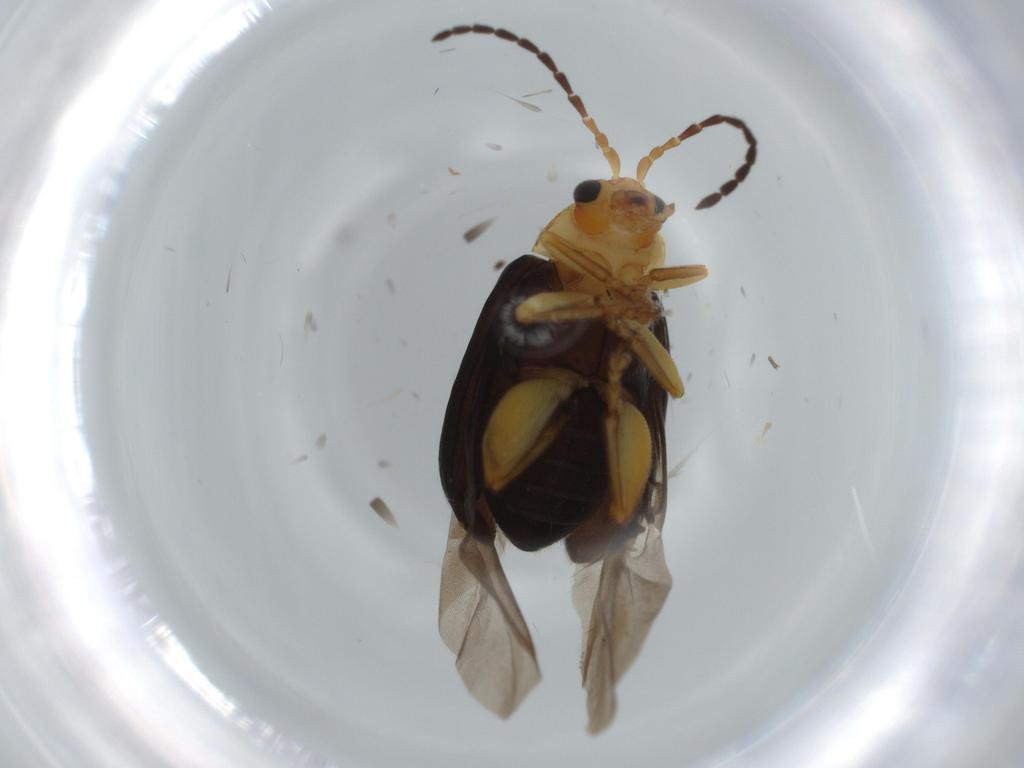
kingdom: Animalia
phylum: Arthropoda
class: Insecta
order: Coleoptera
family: Chrysomelidae
